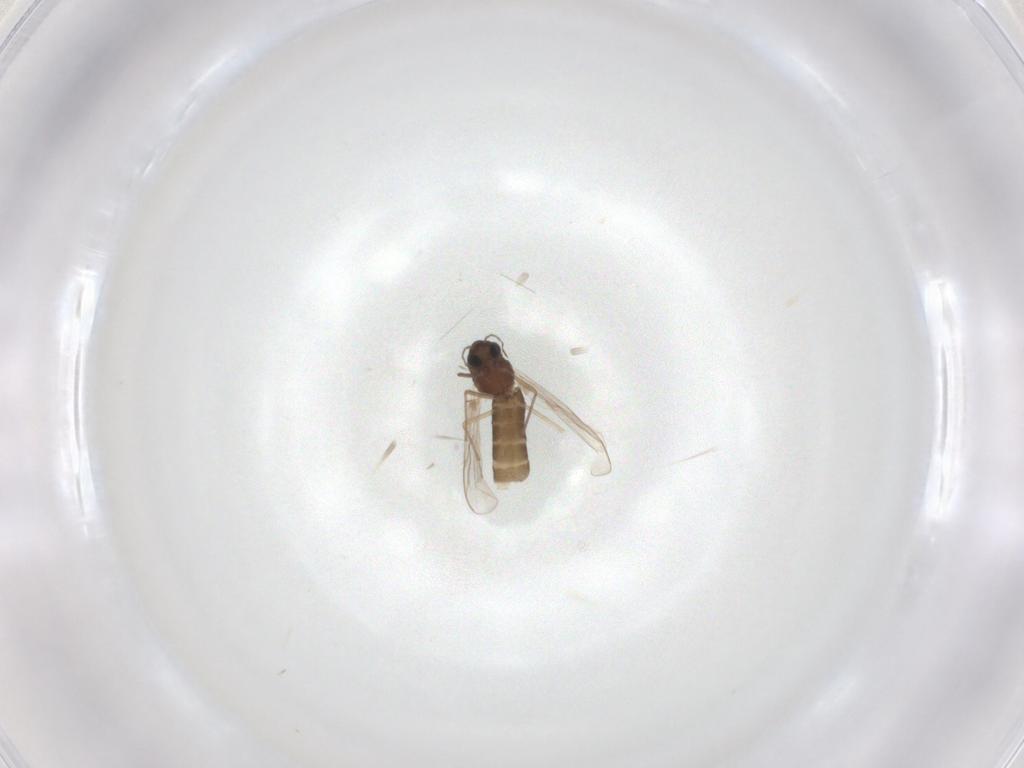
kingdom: Animalia
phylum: Arthropoda
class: Insecta
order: Diptera
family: Chironomidae
